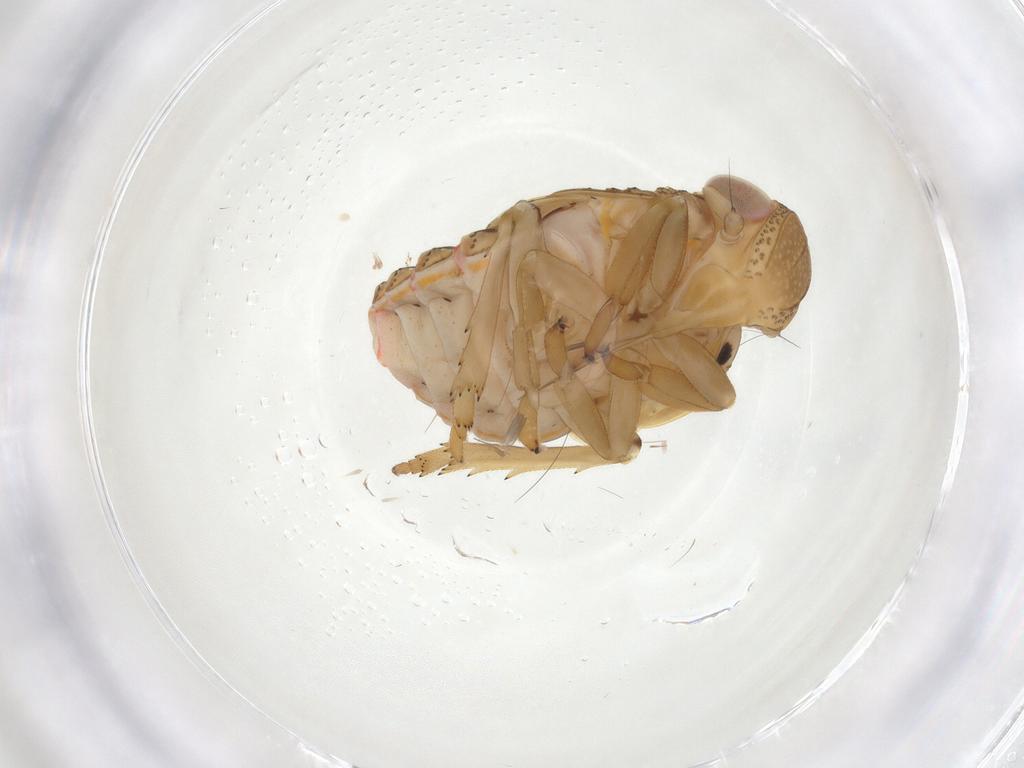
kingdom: Animalia
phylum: Arthropoda
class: Insecta
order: Hemiptera
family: Issidae
